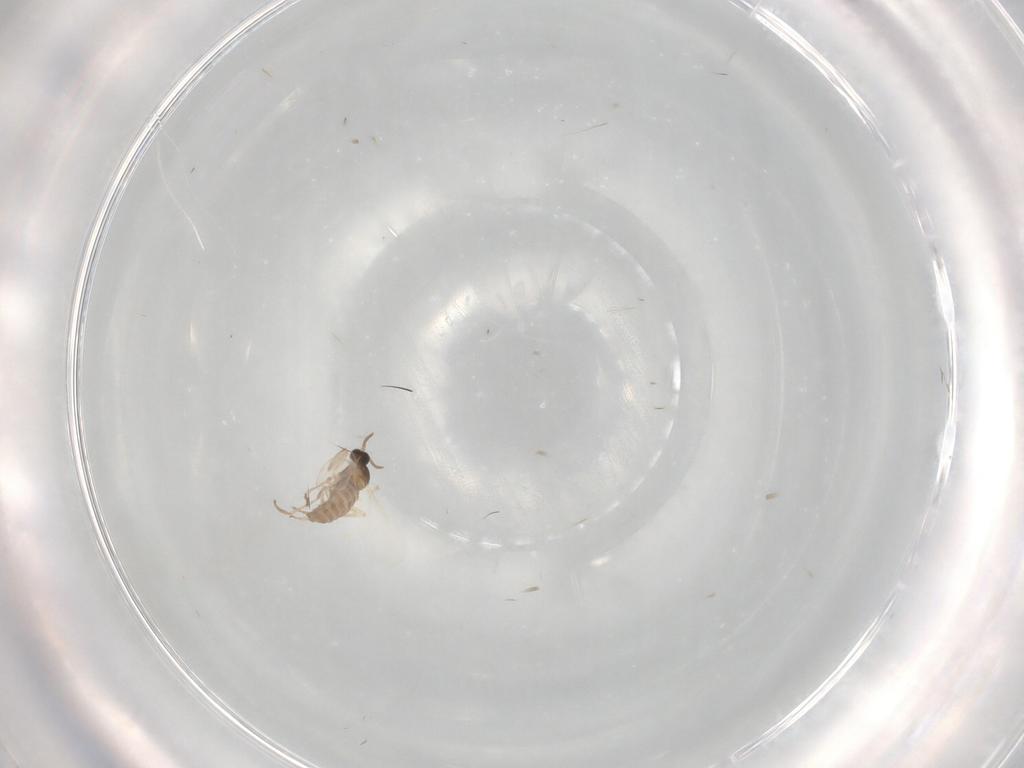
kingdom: Animalia
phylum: Arthropoda
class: Insecta
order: Diptera
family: Cecidomyiidae
